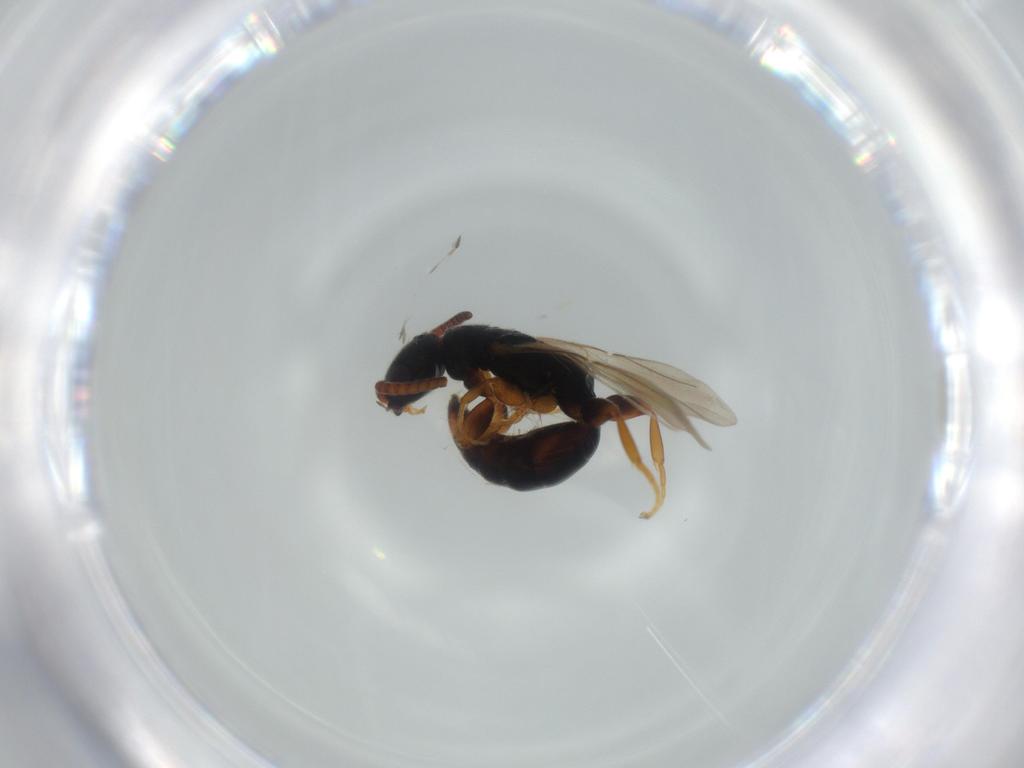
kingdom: Animalia
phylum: Arthropoda
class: Insecta
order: Hymenoptera
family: Bethylidae
